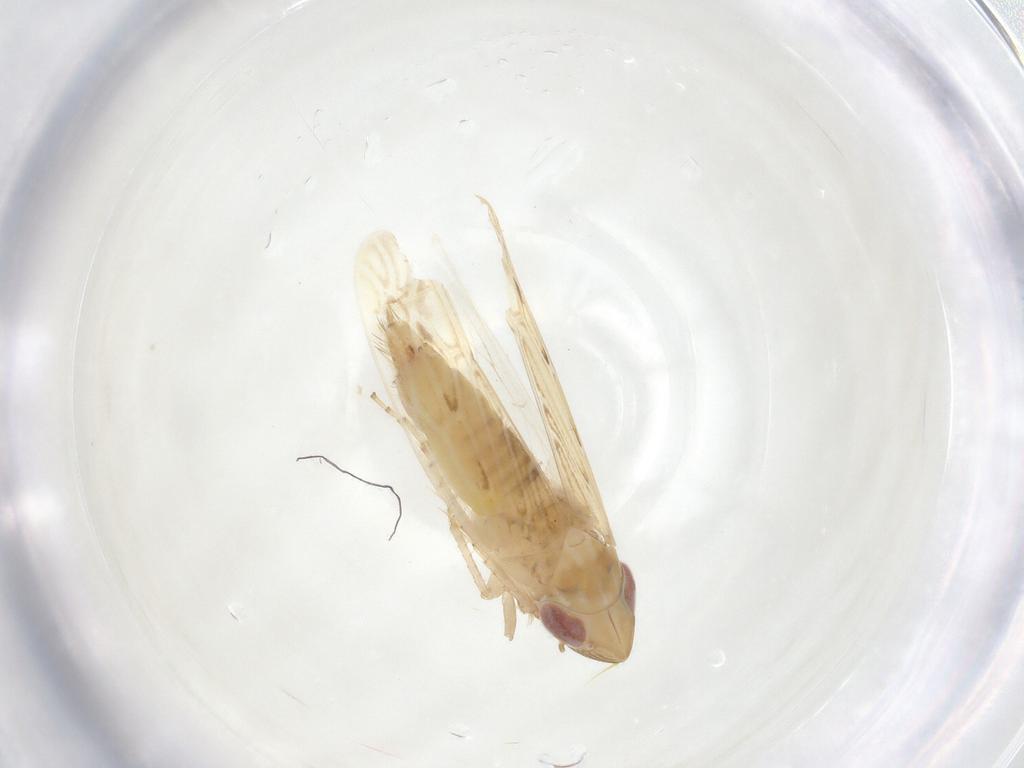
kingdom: Animalia
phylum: Arthropoda
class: Insecta
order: Hemiptera
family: Cicadellidae
